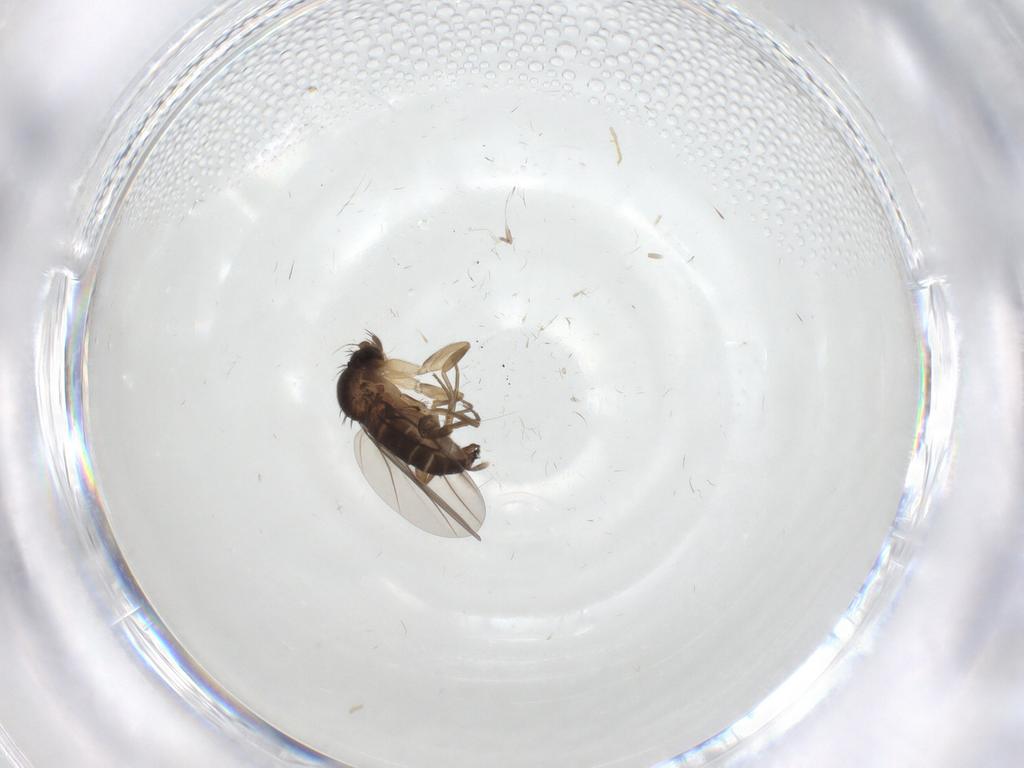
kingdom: Animalia
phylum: Arthropoda
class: Insecta
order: Diptera
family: Phoridae
